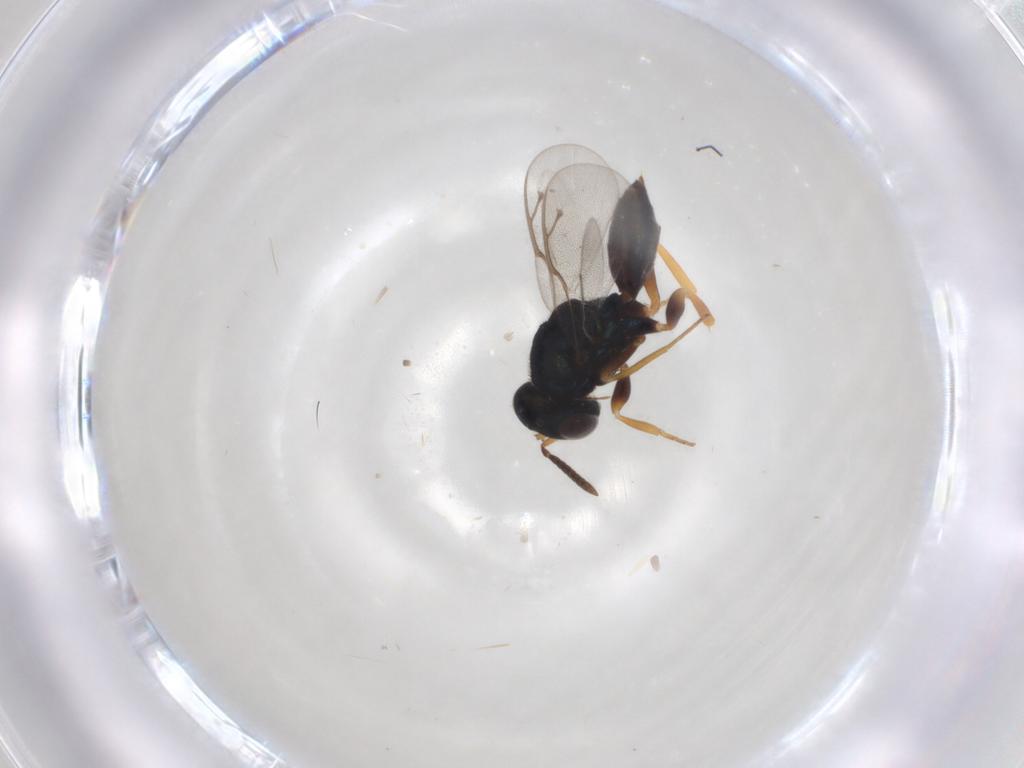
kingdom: Animalia
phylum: Arthropoda
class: Insecta
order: Hymenoptera
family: Pteromalidae
